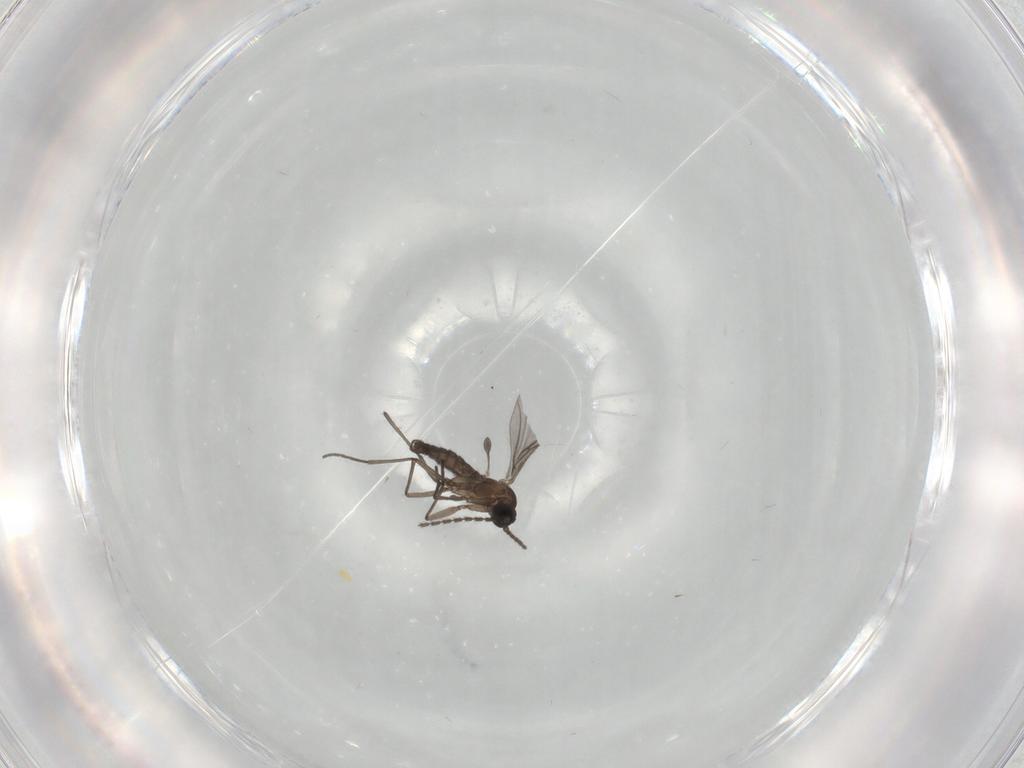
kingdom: Animalia
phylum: Arthropoda
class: Insecta
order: Diptera
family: Sciaridae
